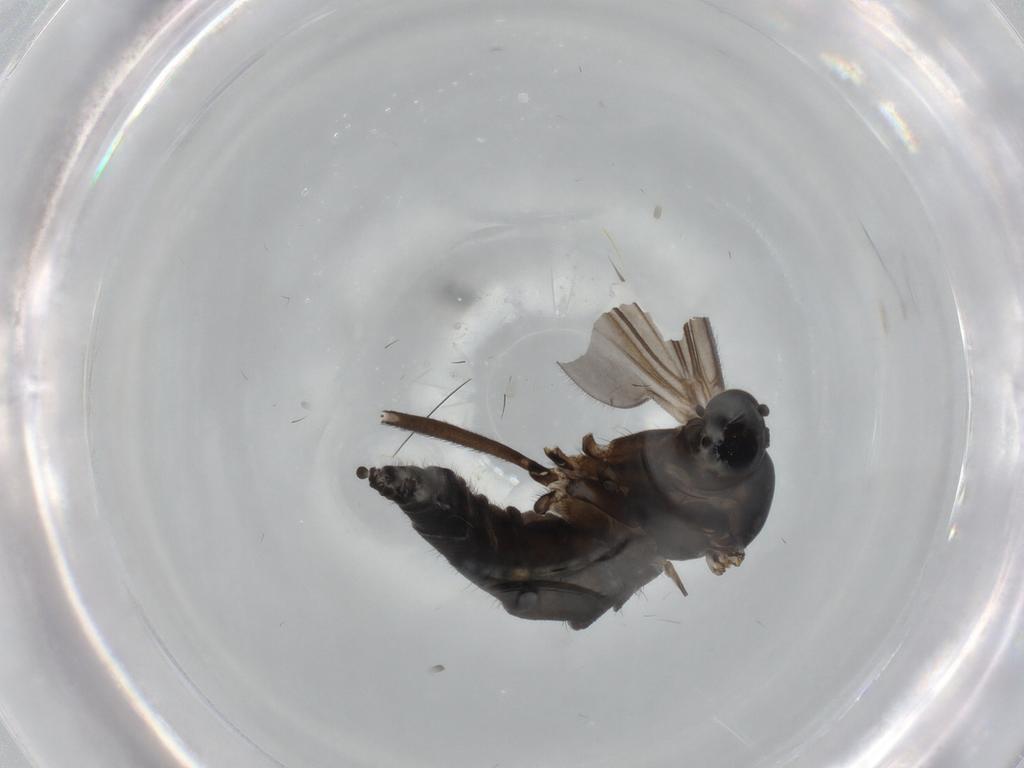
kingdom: Animalia
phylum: Arthropoda
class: Insecta
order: Diptera
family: Sciaridae
